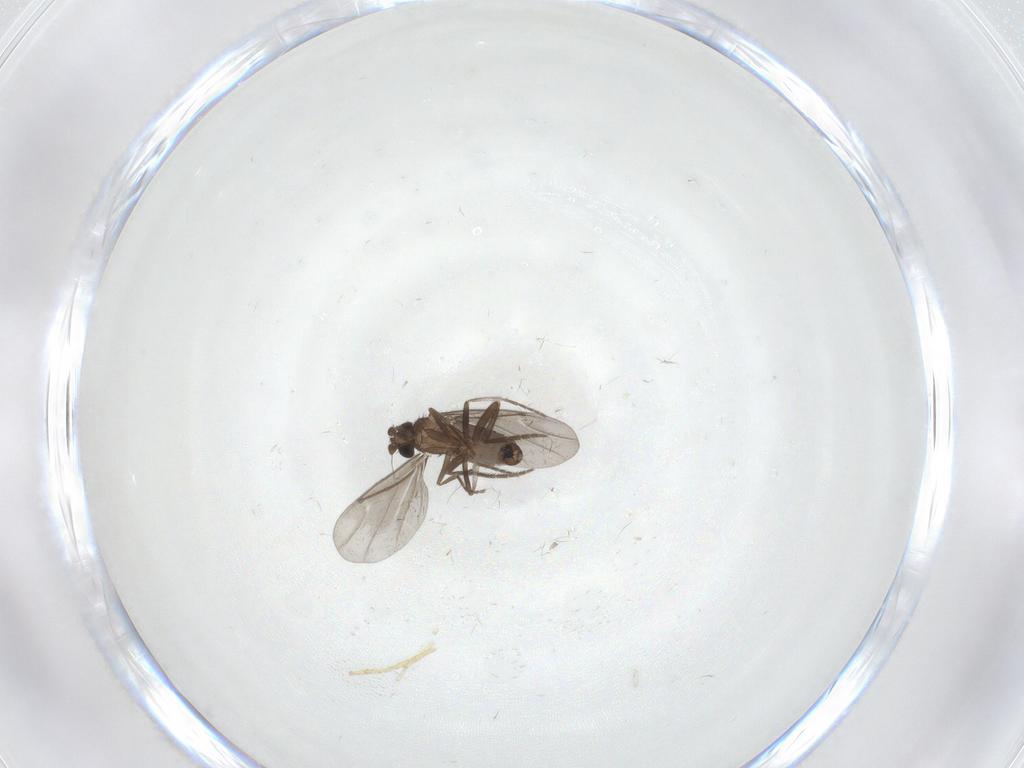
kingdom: Animalia
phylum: Arthropoda
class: Insecta
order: Diptera
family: Phoridae
